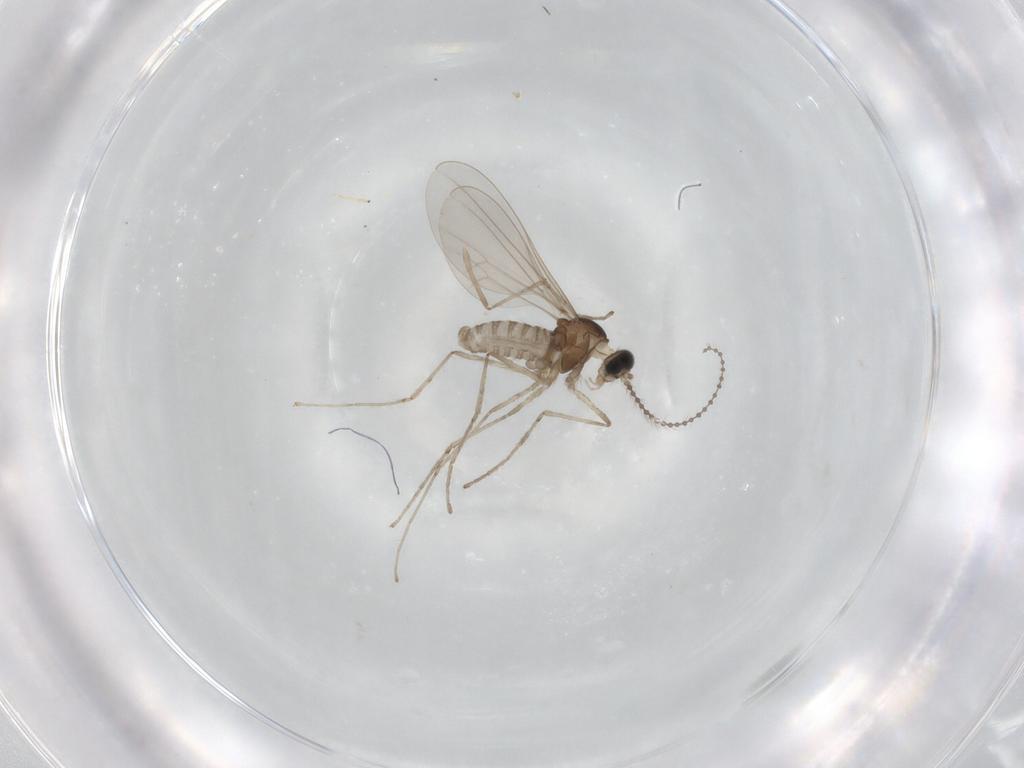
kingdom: Animalia
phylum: Arthropoda
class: Insecta
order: Diptera
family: Cecidomyiidae
